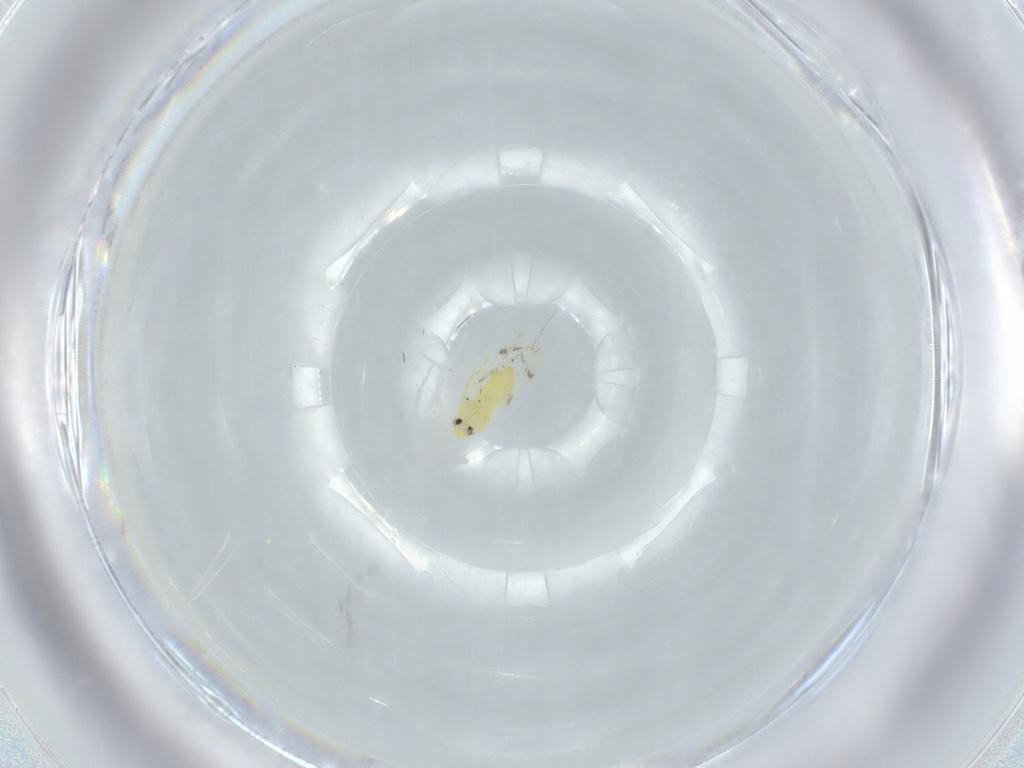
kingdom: Animalia
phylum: Arthropoda
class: Insecta
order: Hemiptera
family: Aleyrodidae
